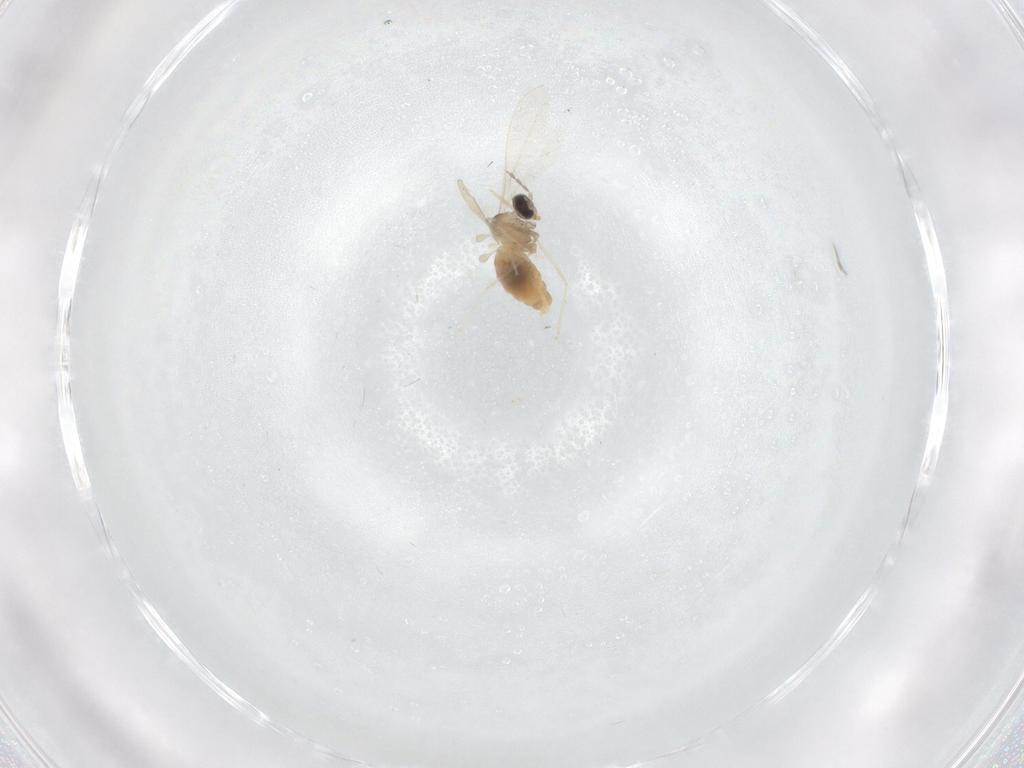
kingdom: Animalia
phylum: Arthropoda
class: Insecta
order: Diptera
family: Cecidomyiidae
